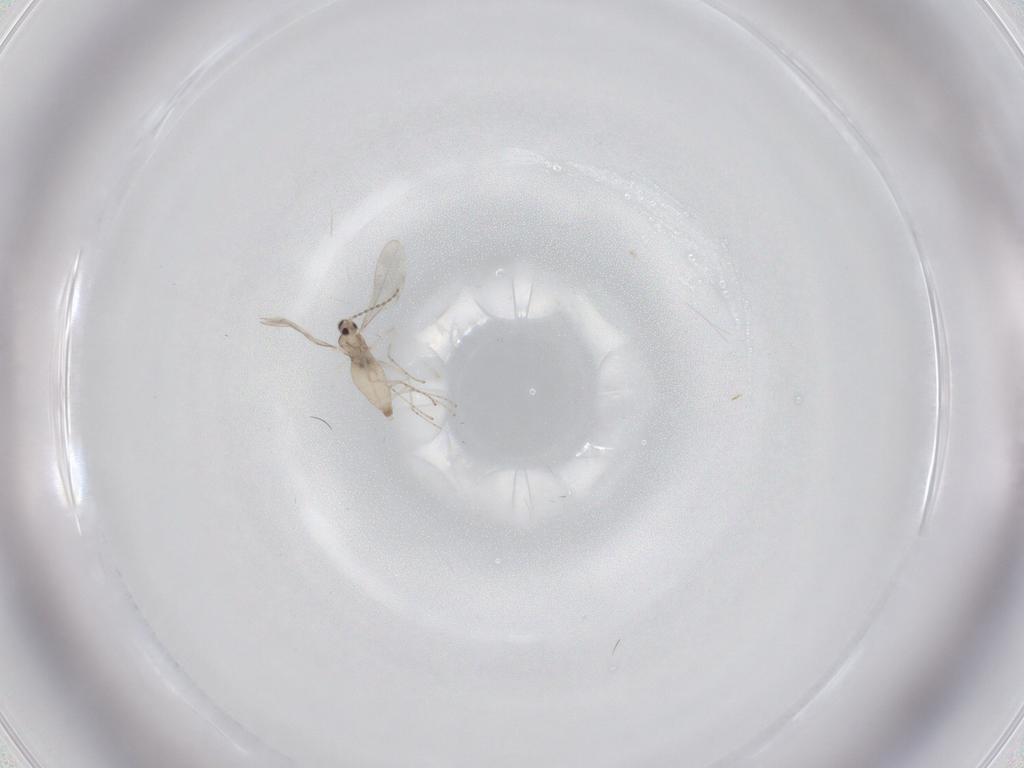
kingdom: Animalia
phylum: Arthropoda
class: Insecta
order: Diptera
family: Cecidomyiidae
